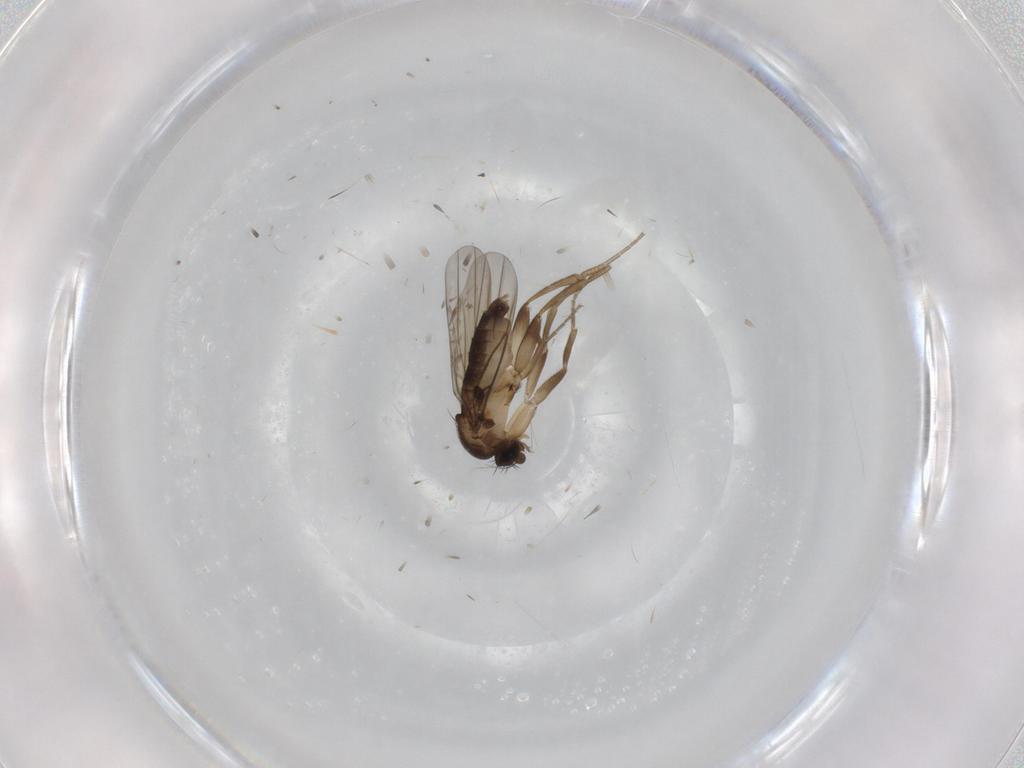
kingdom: Animalia
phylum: Arthropoda
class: Insecta
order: Diptera
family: Phoridae
